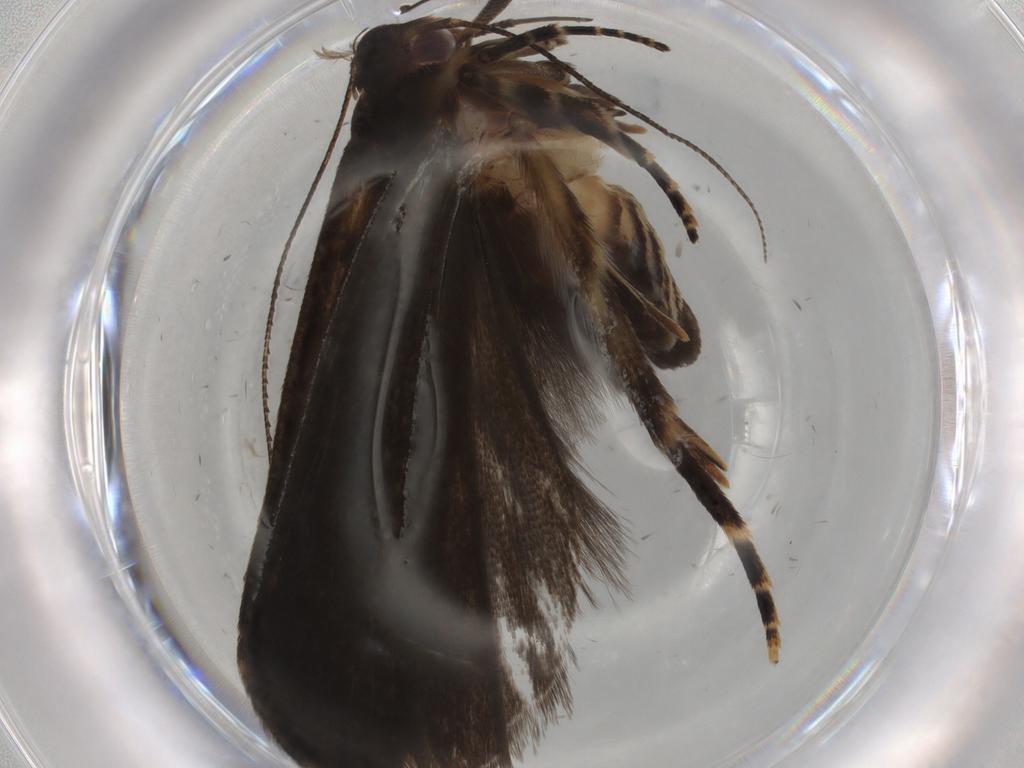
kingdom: Animalia
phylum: Arthropoda
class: Insecta
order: Lepidoptera
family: Gelechiidae
